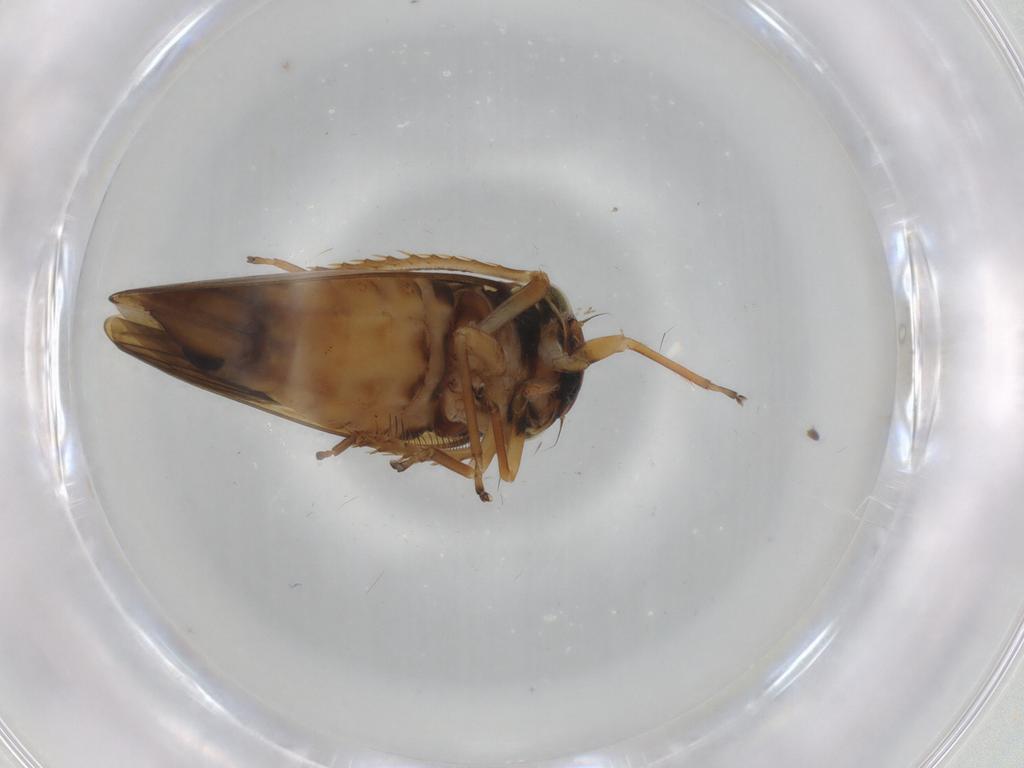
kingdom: Animalia
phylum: Arthropoda
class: Insecta
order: Hemiptera
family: Cicadellidae
